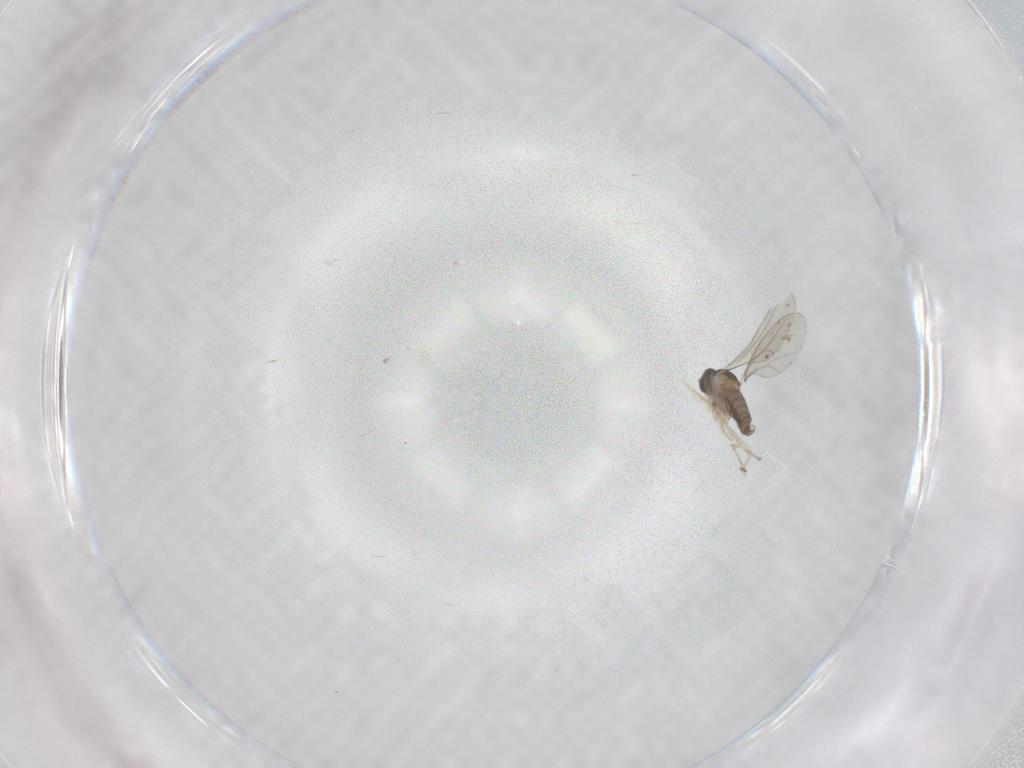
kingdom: Animalia
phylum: Arthropoda
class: Insecta
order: Diptera
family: Cecidomyiidae
